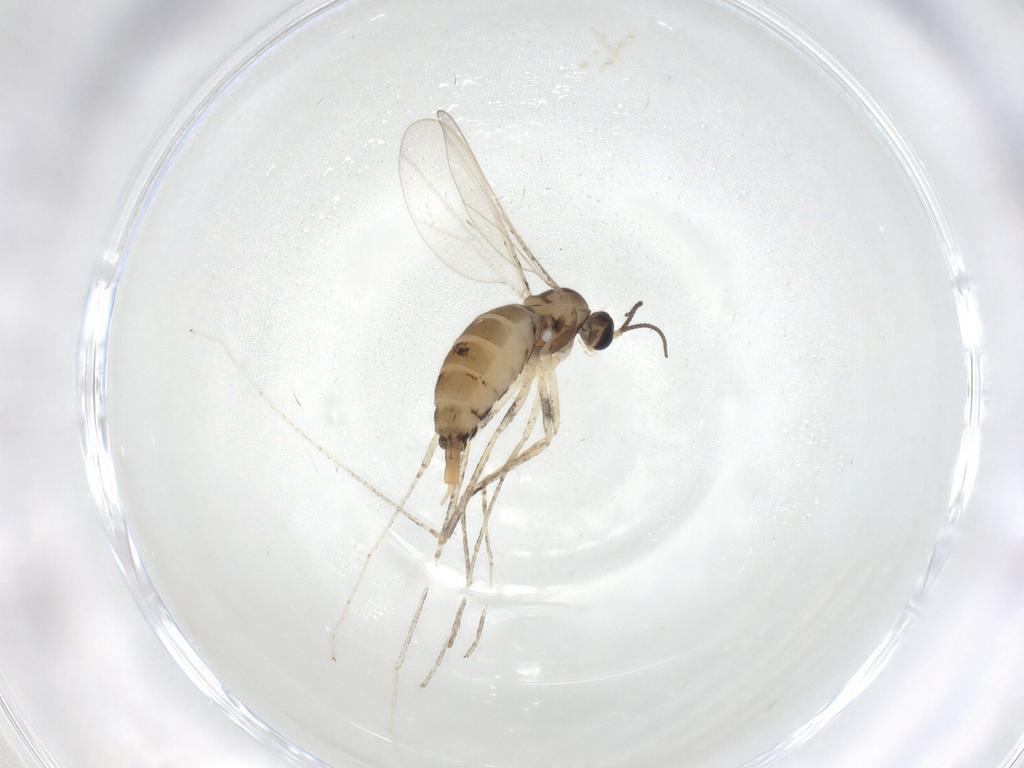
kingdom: Animalia
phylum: Arthropoda
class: Insecta
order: Diptera
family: Cecidomyiidae
